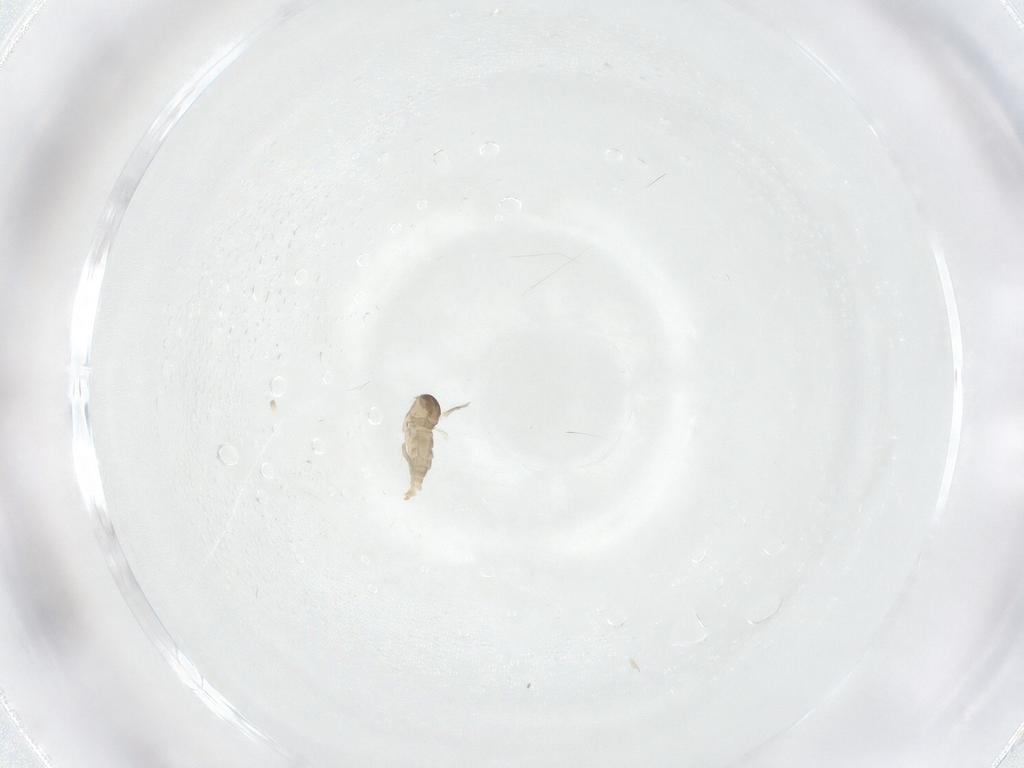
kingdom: Animalia
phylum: Arthropoda
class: Insecta
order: Diptera
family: Cecidomyiidae
